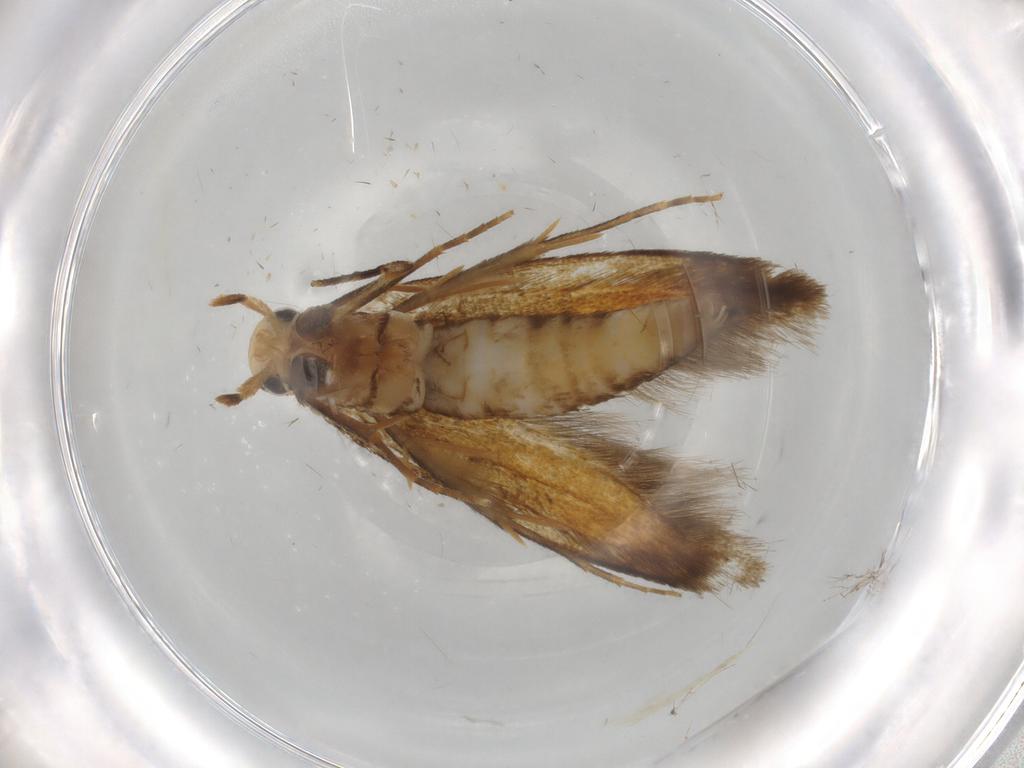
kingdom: Animalia
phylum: Arthropoda
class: Insecta
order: Lepidoptera
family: Tineidae
